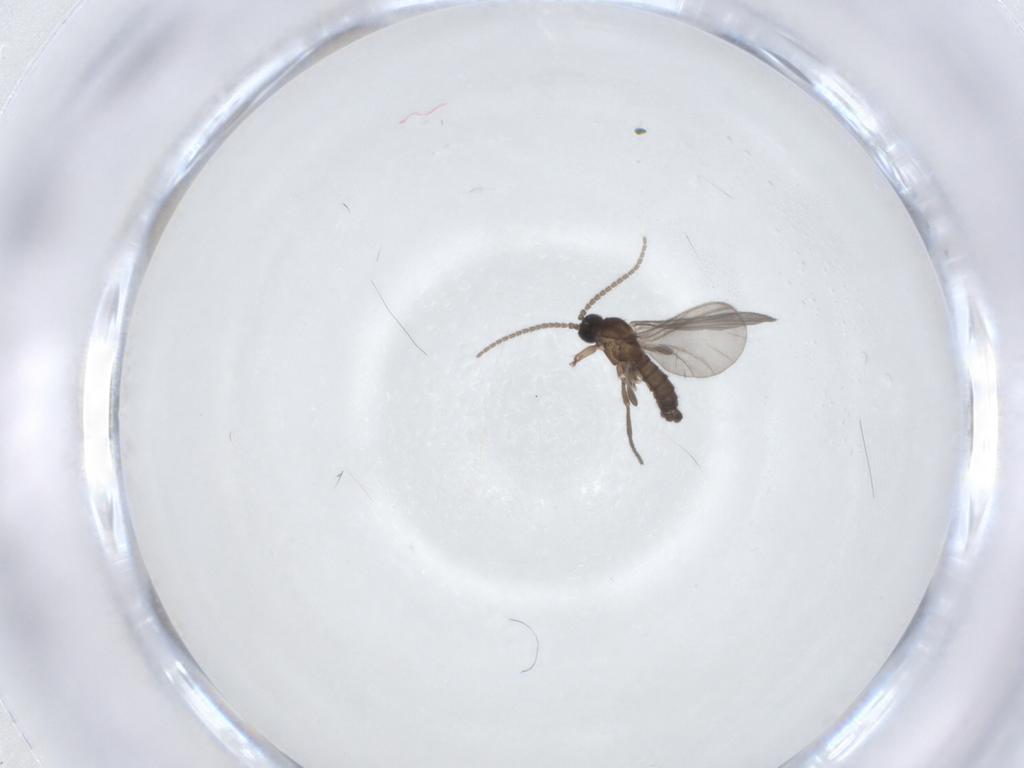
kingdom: Animalia
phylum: Arthropoda
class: Insecta
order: Diptera
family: Sciaridae
